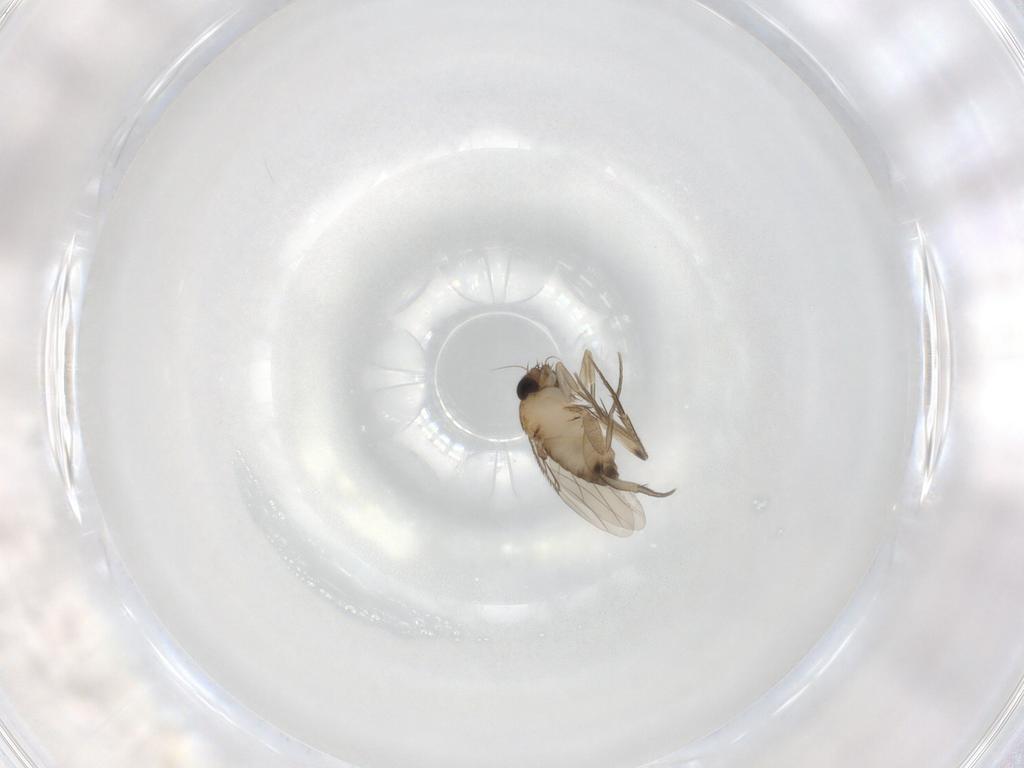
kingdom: Animalia
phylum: Arthropoda
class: Insecta
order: Diptera
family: Phoridae
